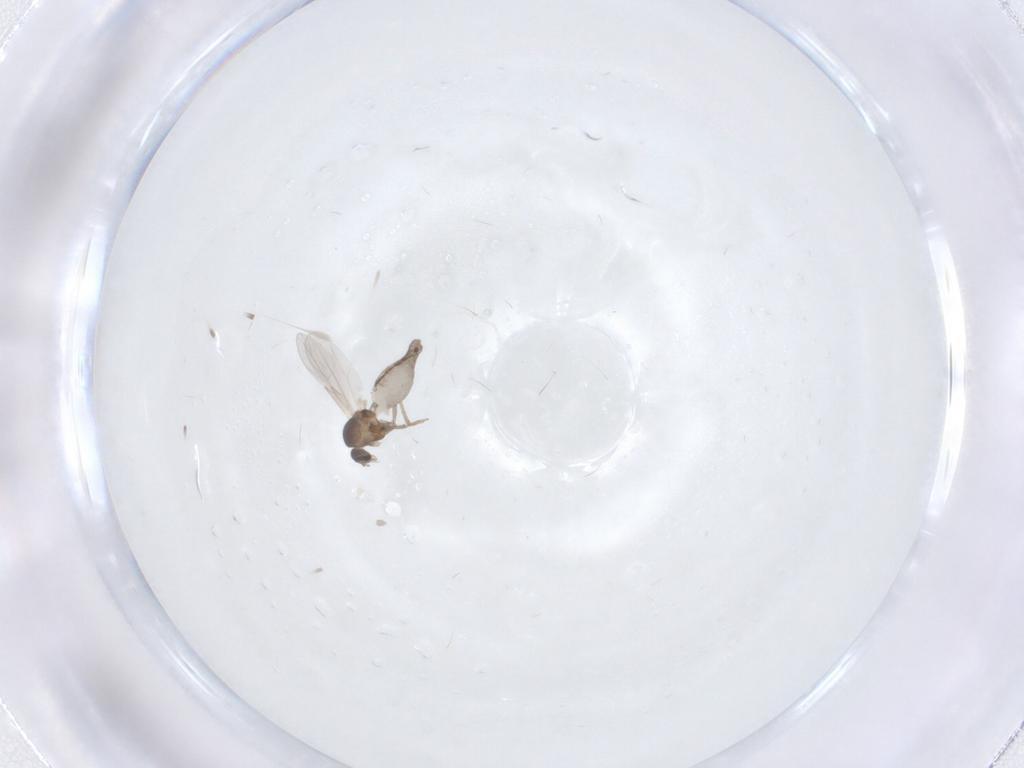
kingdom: Animalia
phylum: Arthropoda
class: Insecta
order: Diptera
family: Ceratopogonidae
